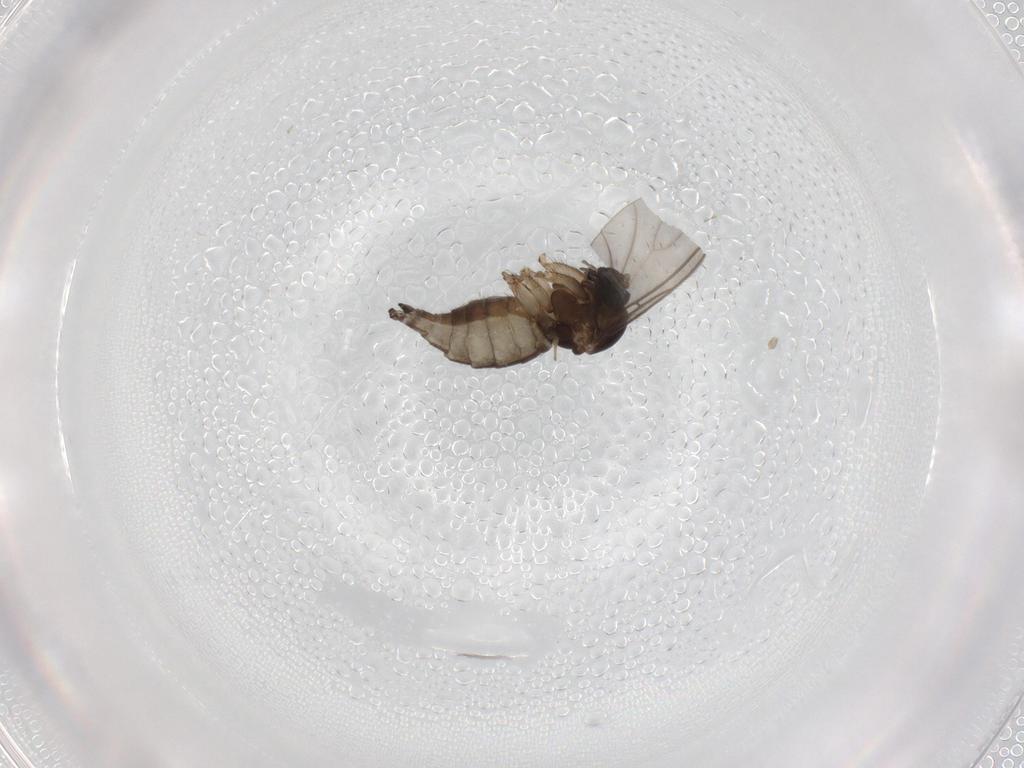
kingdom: Animalia
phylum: Arthropoda
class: Insecta
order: Diptera
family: Sciaridae
